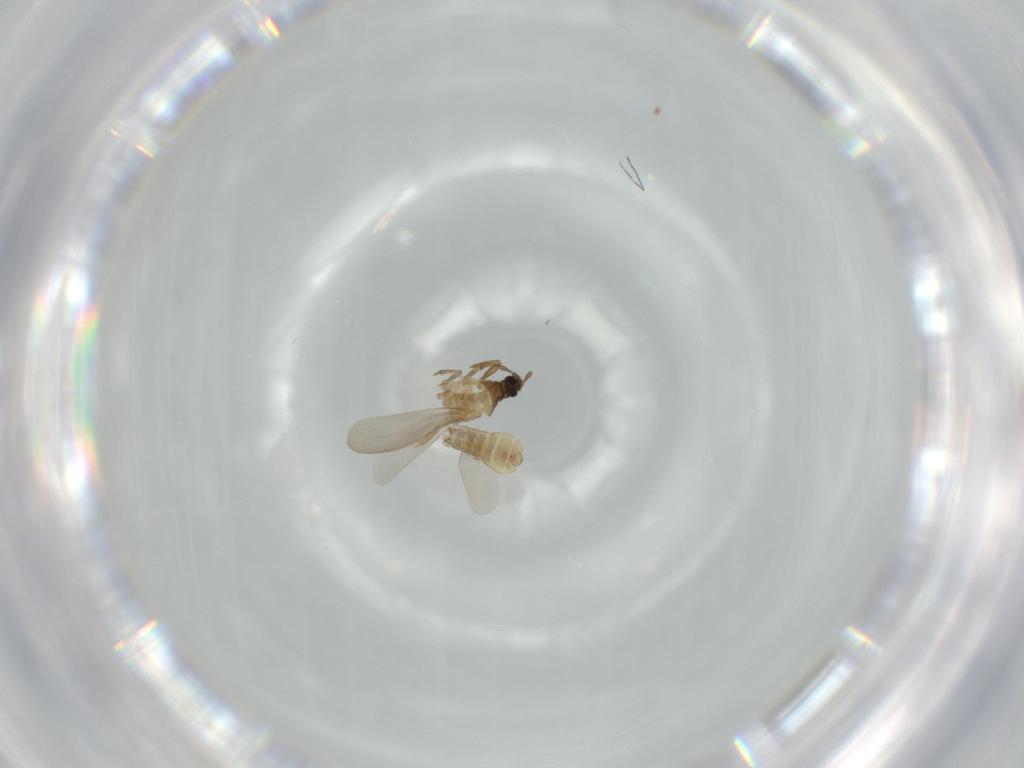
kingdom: Animalia
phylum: Arthropoda
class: Insecta
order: Hemiptera
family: Enicocephalidae
